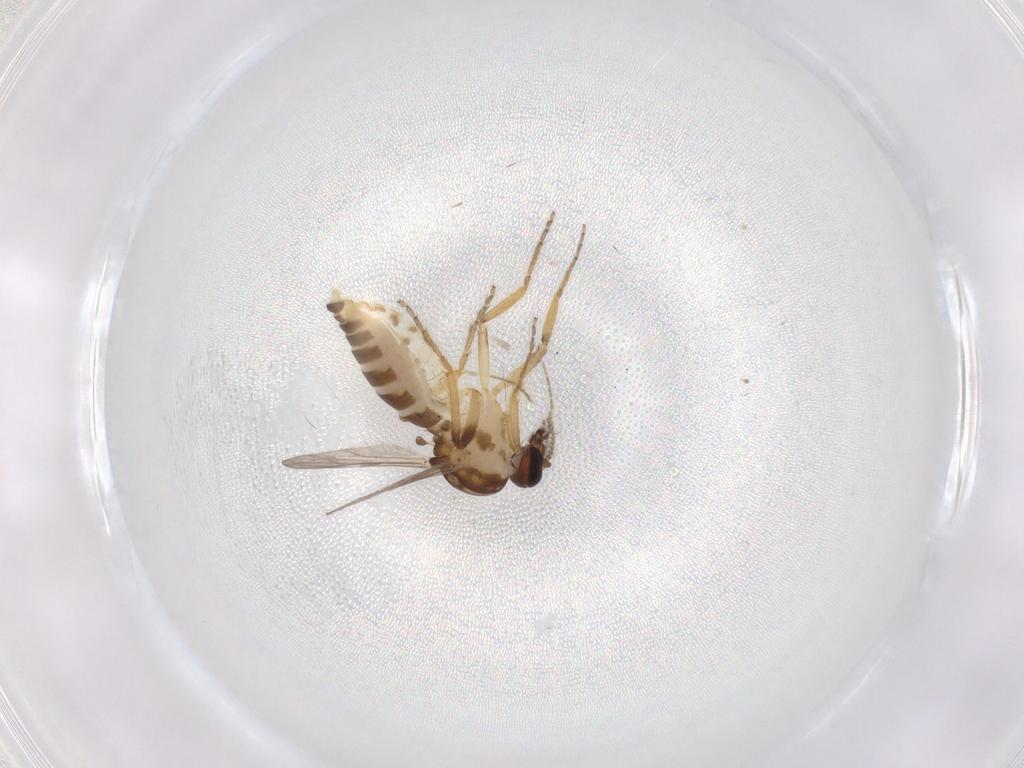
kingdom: Animalia
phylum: Arthropoda
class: Insecta
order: Diptera
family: Ceratopogonidae
